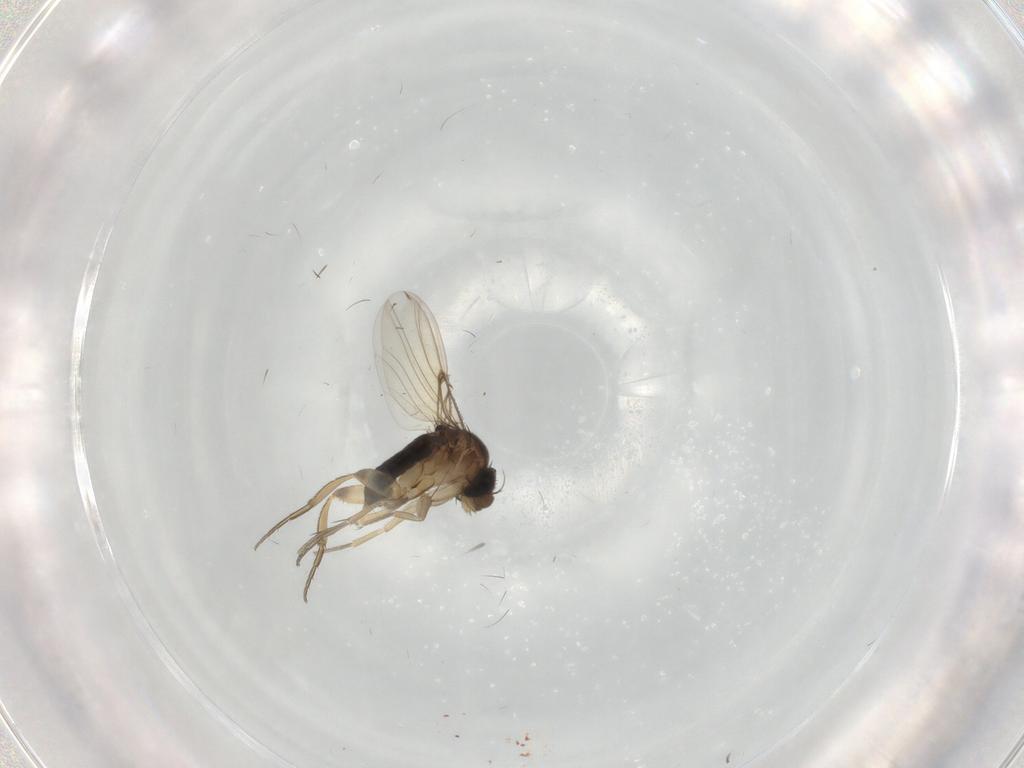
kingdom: Animalia
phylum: Arthropoda
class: Insecta
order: Diptera
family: Phoridae
